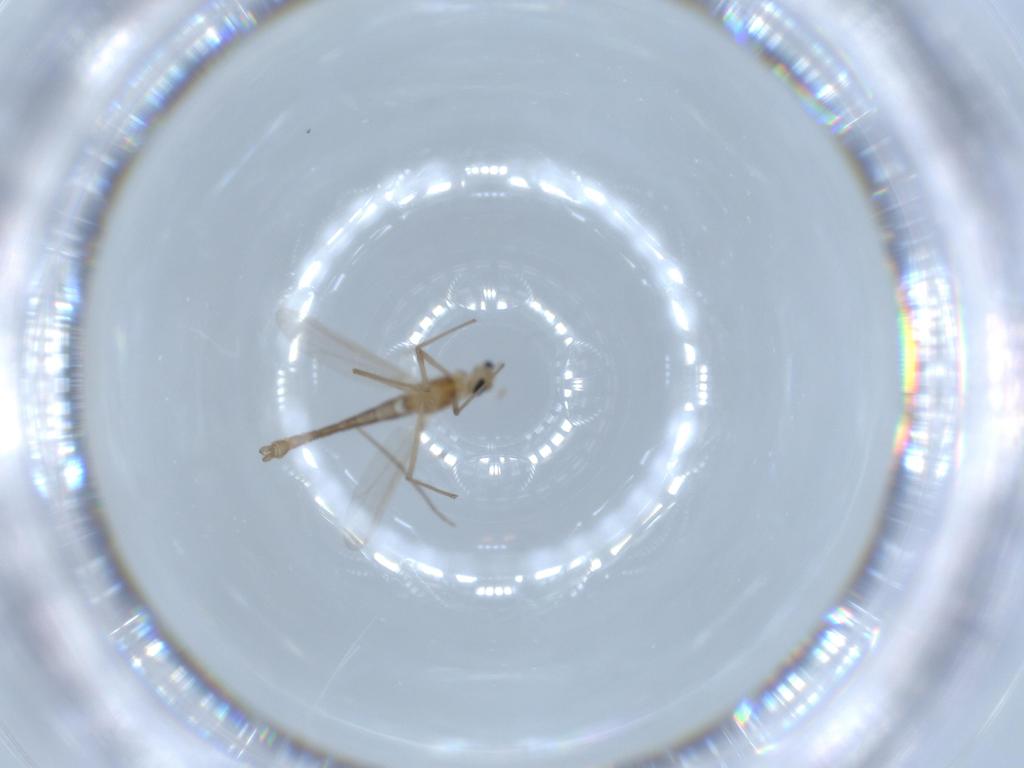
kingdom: Animalia
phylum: Arthropoda
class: Insecta
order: Diptera
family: Chironomidae
